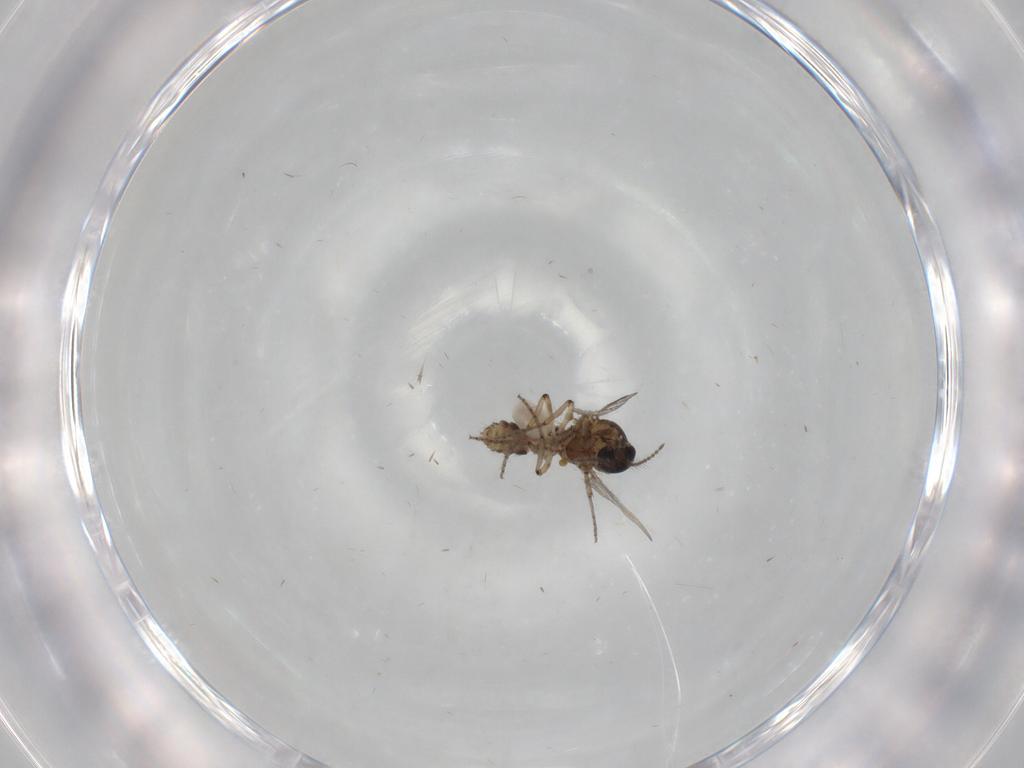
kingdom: Animalia
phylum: Arthropoda
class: Insecta
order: Diptera
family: Ceratopogonidae
